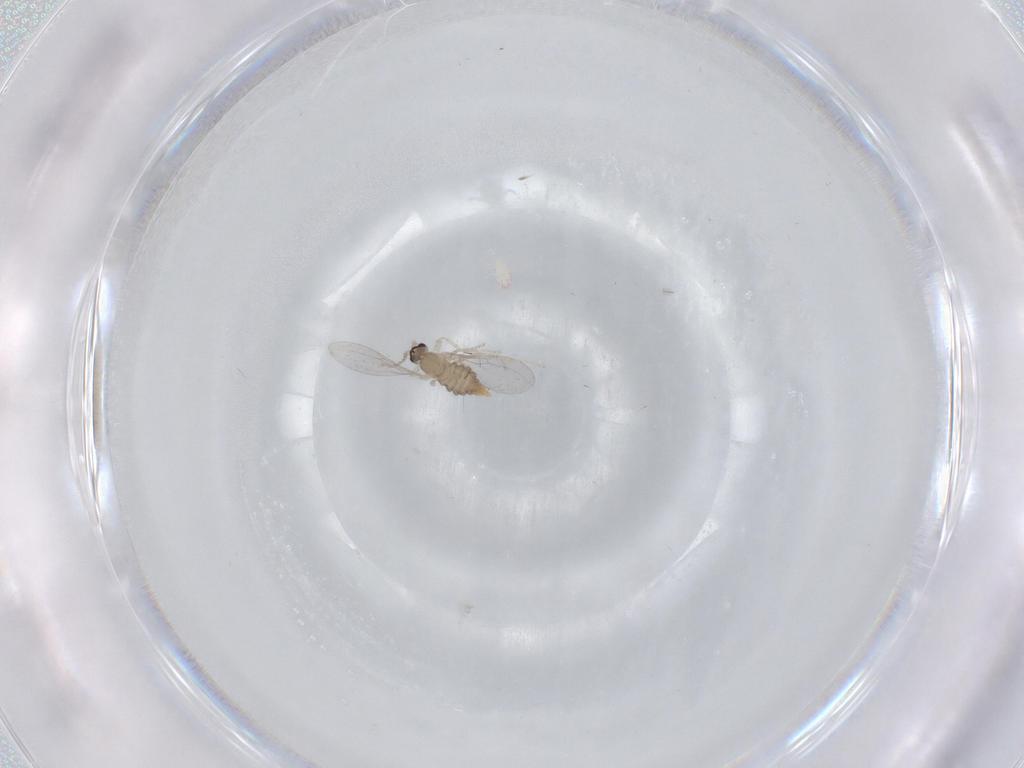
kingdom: Animalia
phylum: Arthropoda
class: Insecta
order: Diptera
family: Cecidomyiidae
